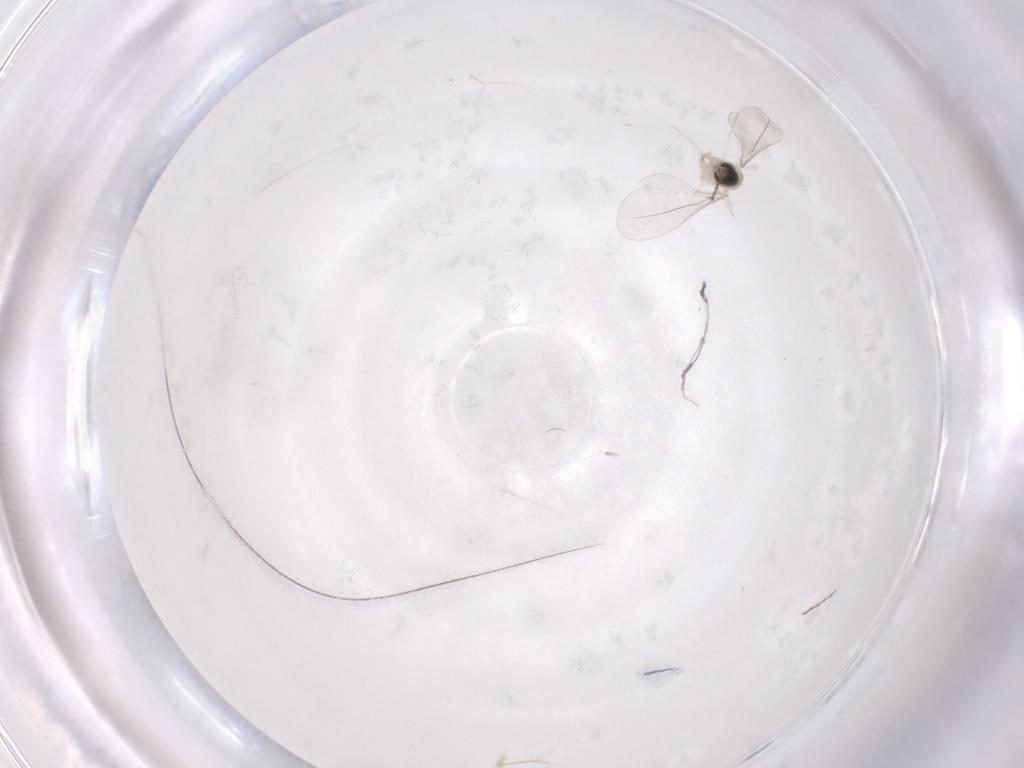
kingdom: Animalia
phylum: Arthropoda
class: Insecta
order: Diptera
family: Cecidomyiidae
